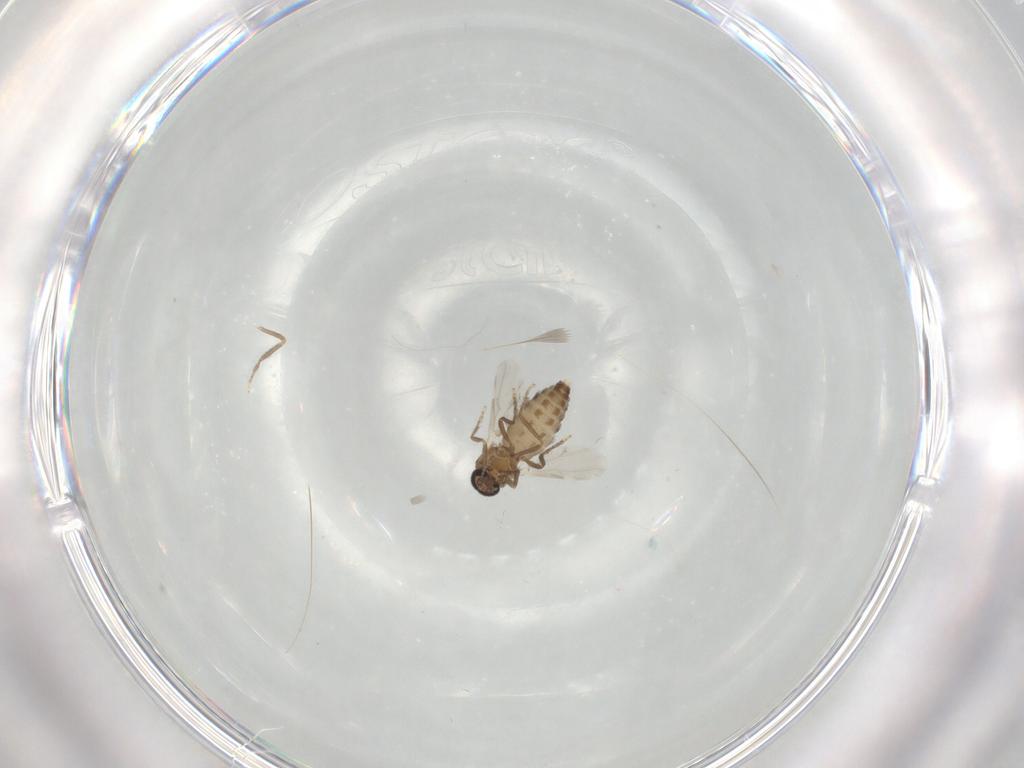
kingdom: Animalia
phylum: Arthropoda
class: Insecta
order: Diptera
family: Ceratopogonidae
